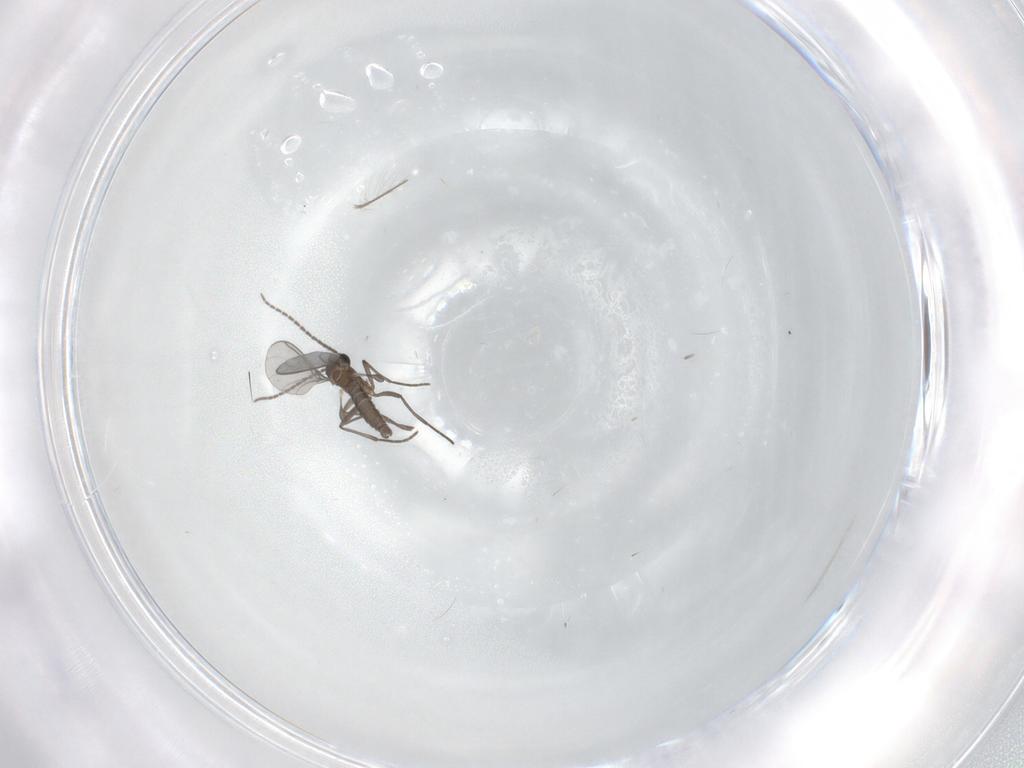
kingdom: Animalia
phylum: Arthropoda
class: Insecta
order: Diptera
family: Sciaridae
